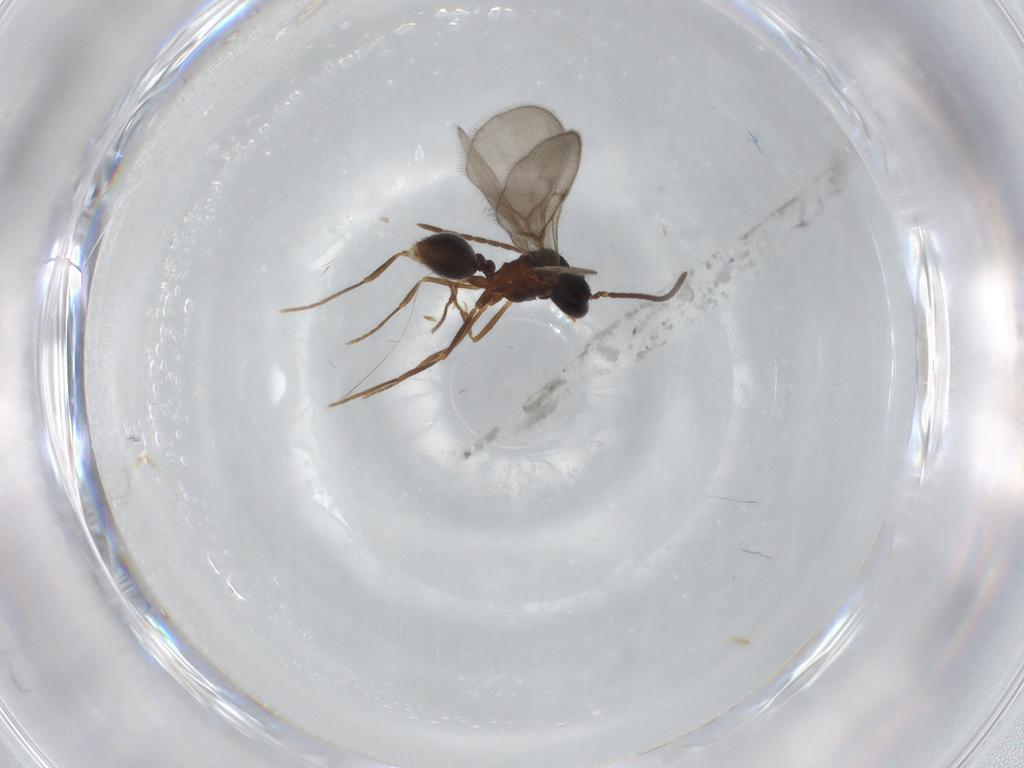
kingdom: Animalia
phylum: Arthropoda
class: Insecta
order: Hymenoptera
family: Formicidae
